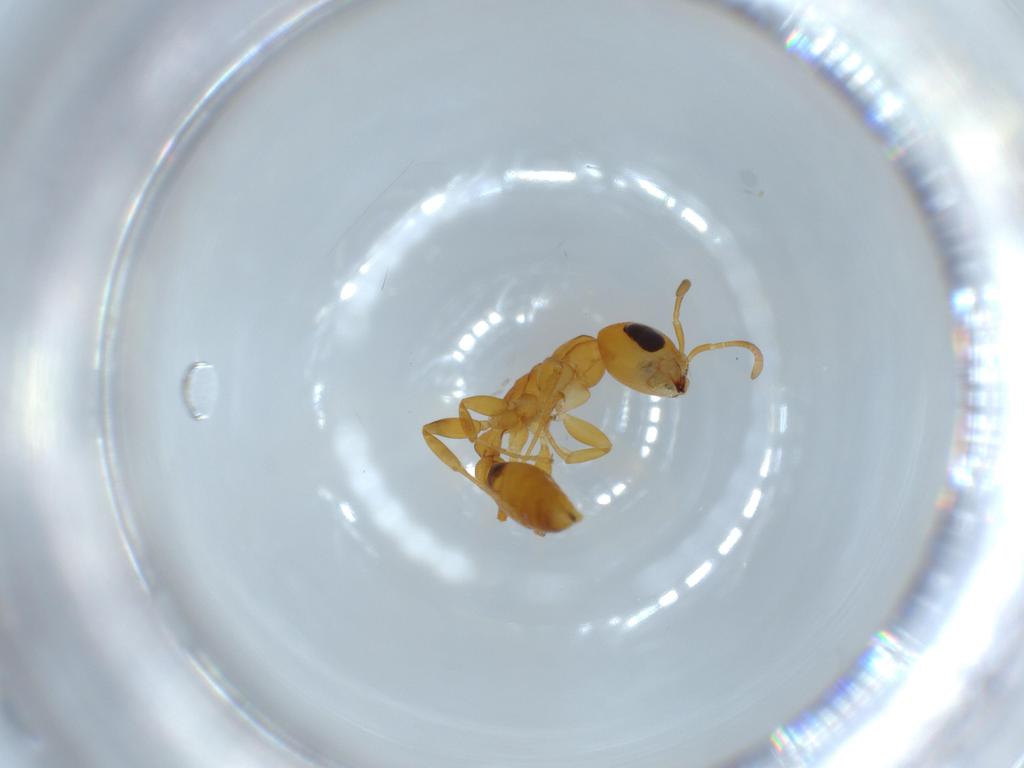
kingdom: Animalia
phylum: Arthropoda
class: Insecta
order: Hymenoptera
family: Formicidae
